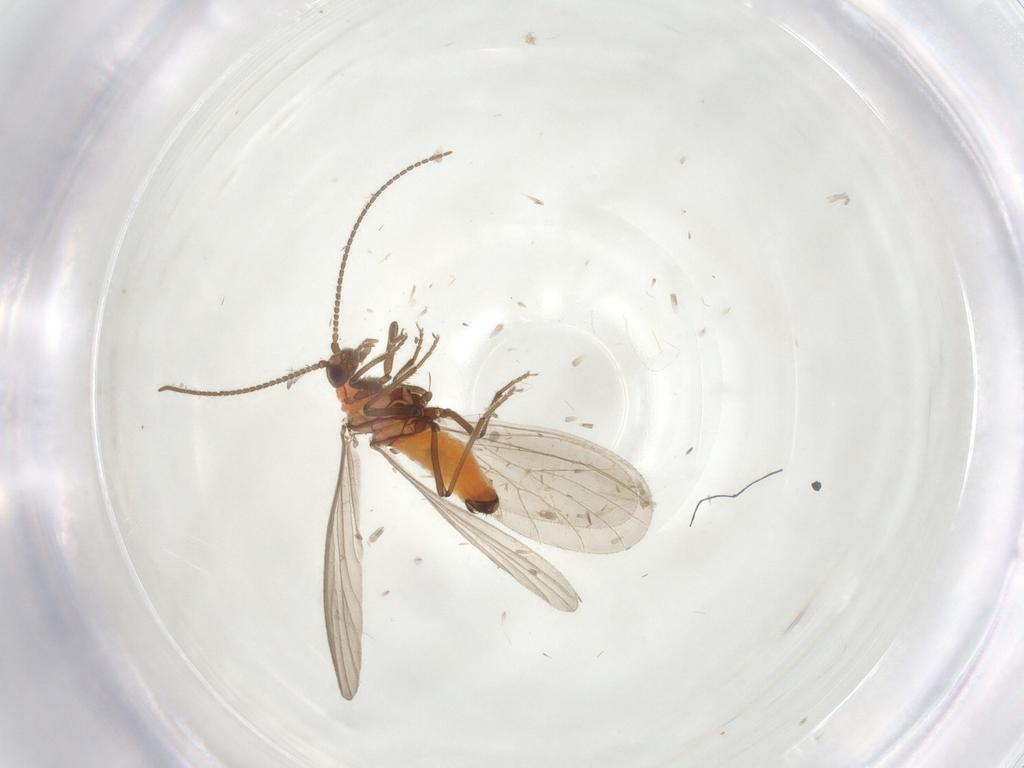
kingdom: Animalia
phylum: Arthropoda
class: Insecta
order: Neuroptera
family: Coniopterygidae
